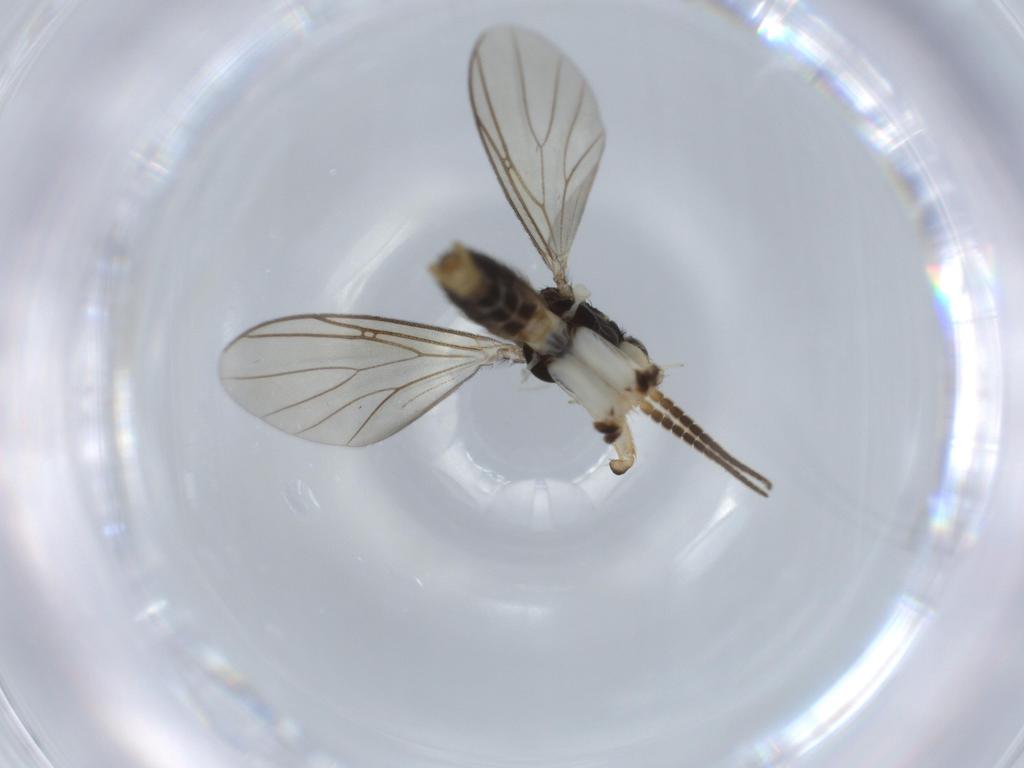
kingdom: Animalia
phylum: Arthropoda
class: Insecta
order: Diptera
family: Sciaridae
